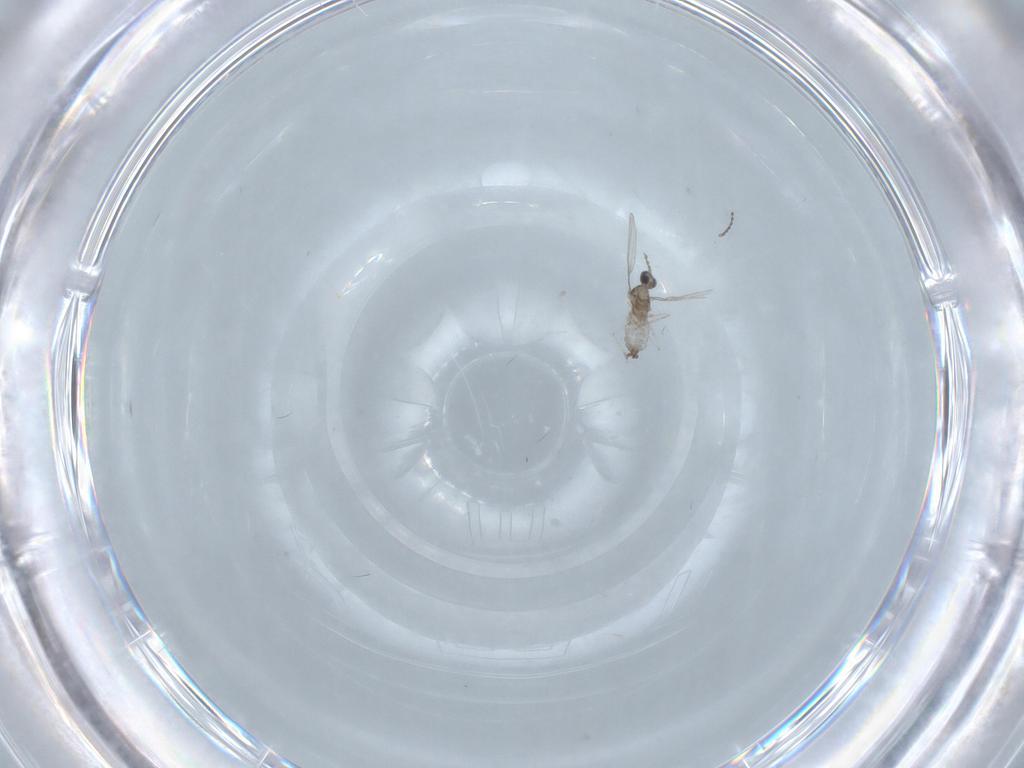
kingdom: Animalia
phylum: Arthropoda
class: Insecta
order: Diptera
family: Cecidomyiidae
